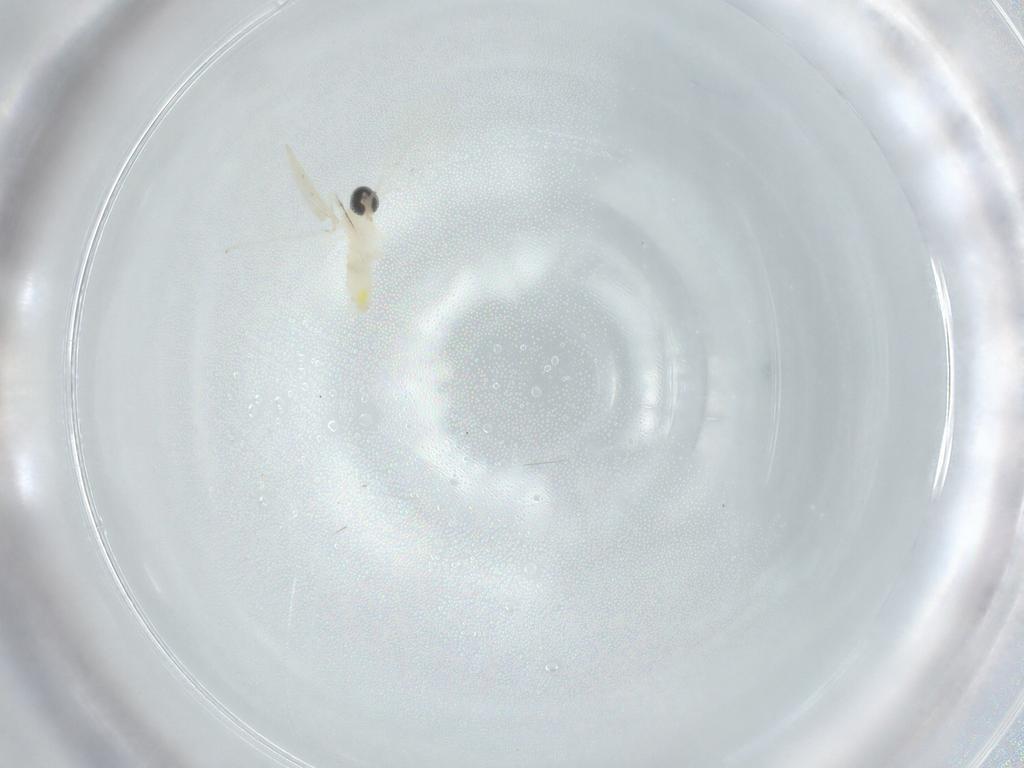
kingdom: Animalia
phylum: Arthropoda
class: Insecta
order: Diptera
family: Cecidomyiidae
